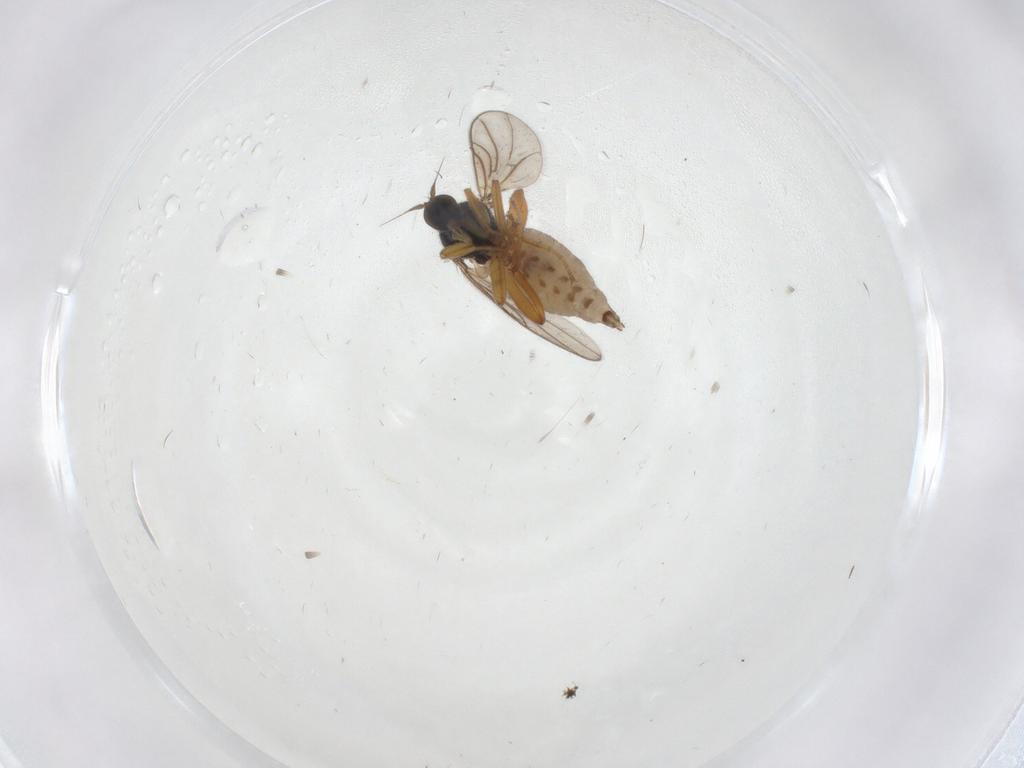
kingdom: Animalia
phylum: Arthropoda
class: Insecta
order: Diptera
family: Hybotidae
